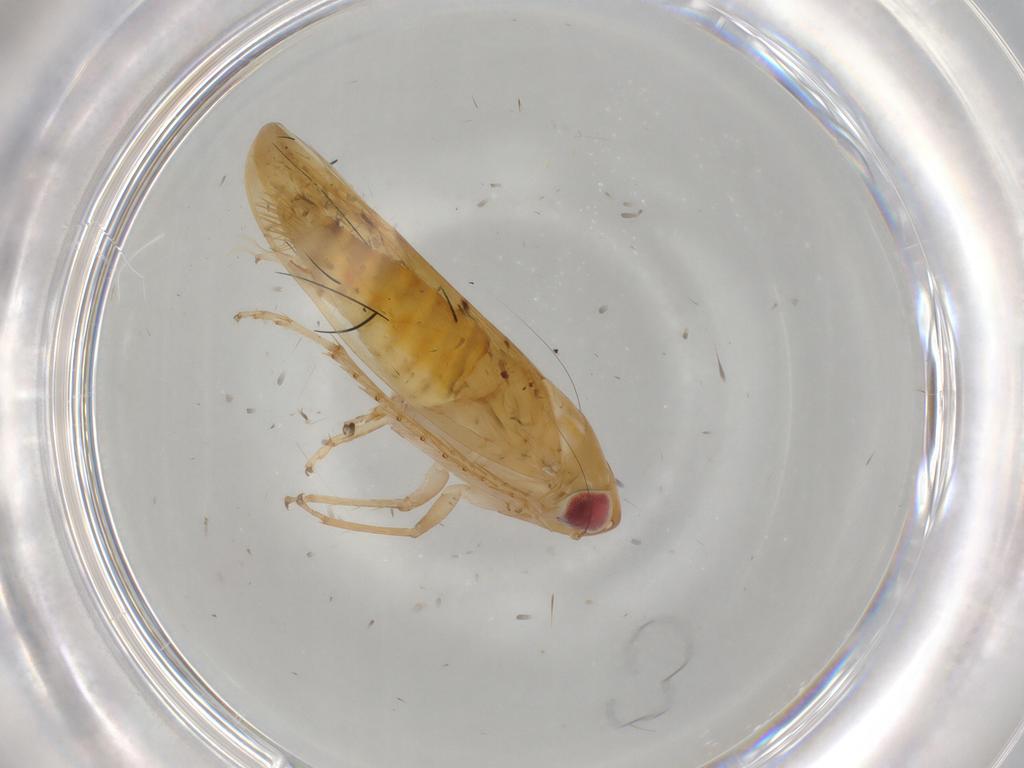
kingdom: Animalia
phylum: Arthropoda
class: Insecta
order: Hemiptera
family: Cicadellidae
